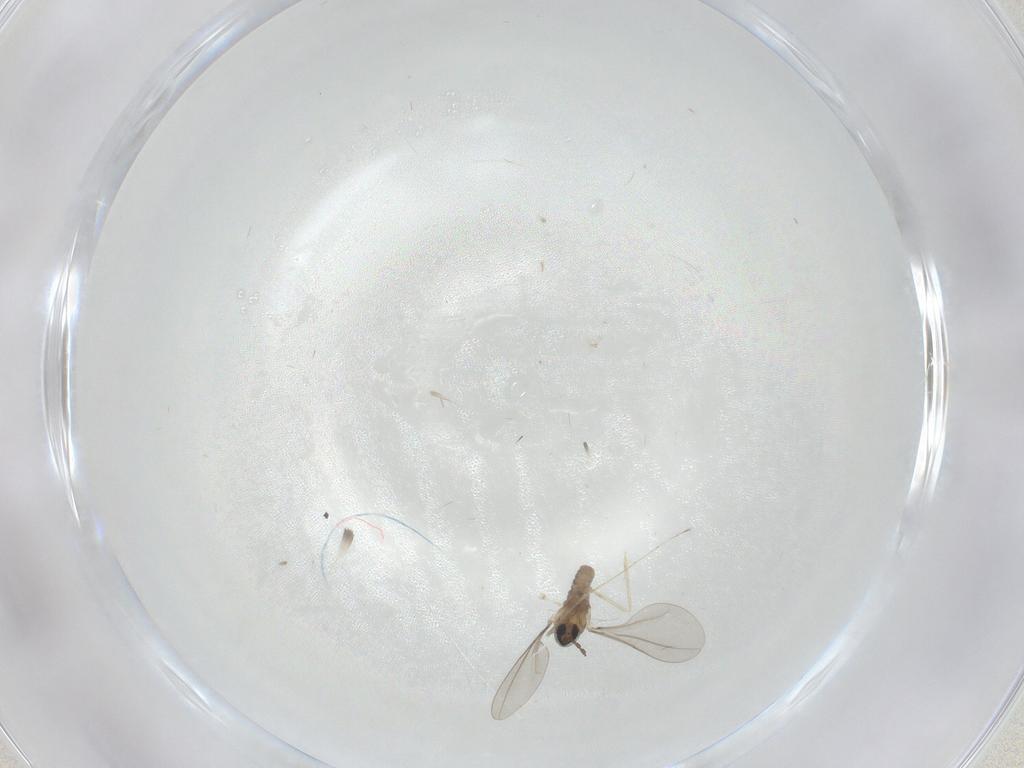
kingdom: Animalia
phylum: Arthropoda
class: Insecta
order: Diptera
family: Cecidomyiidae
